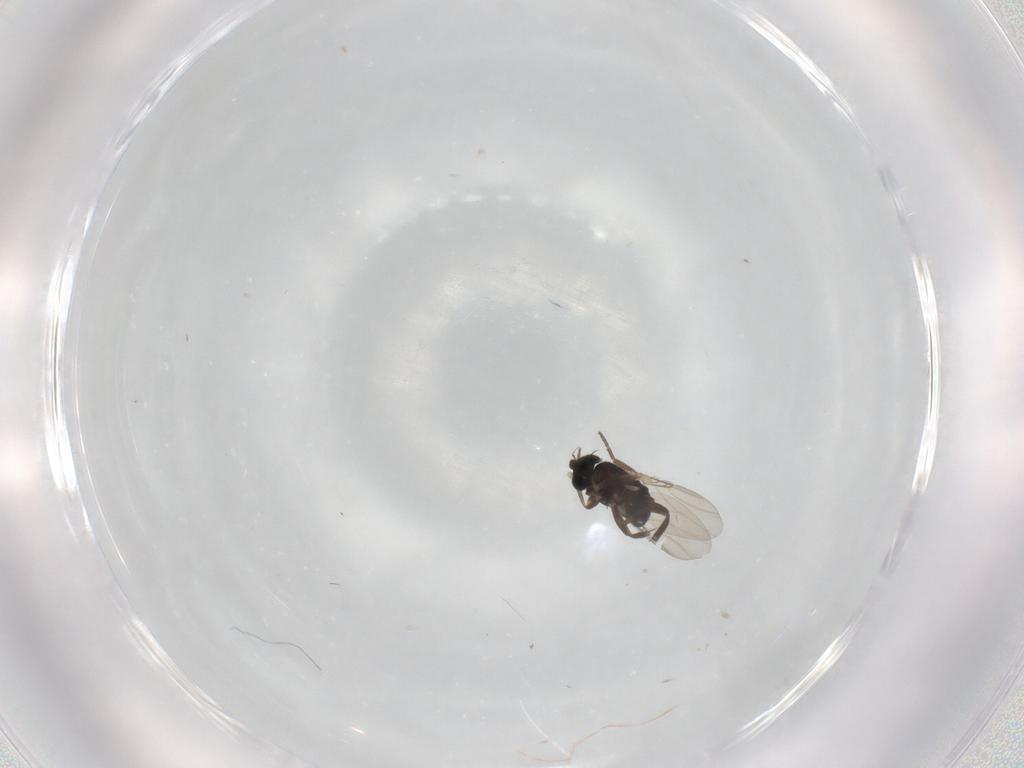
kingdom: Animalia
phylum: Arthropoda
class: Insecta
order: Diptera
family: Phoridae
